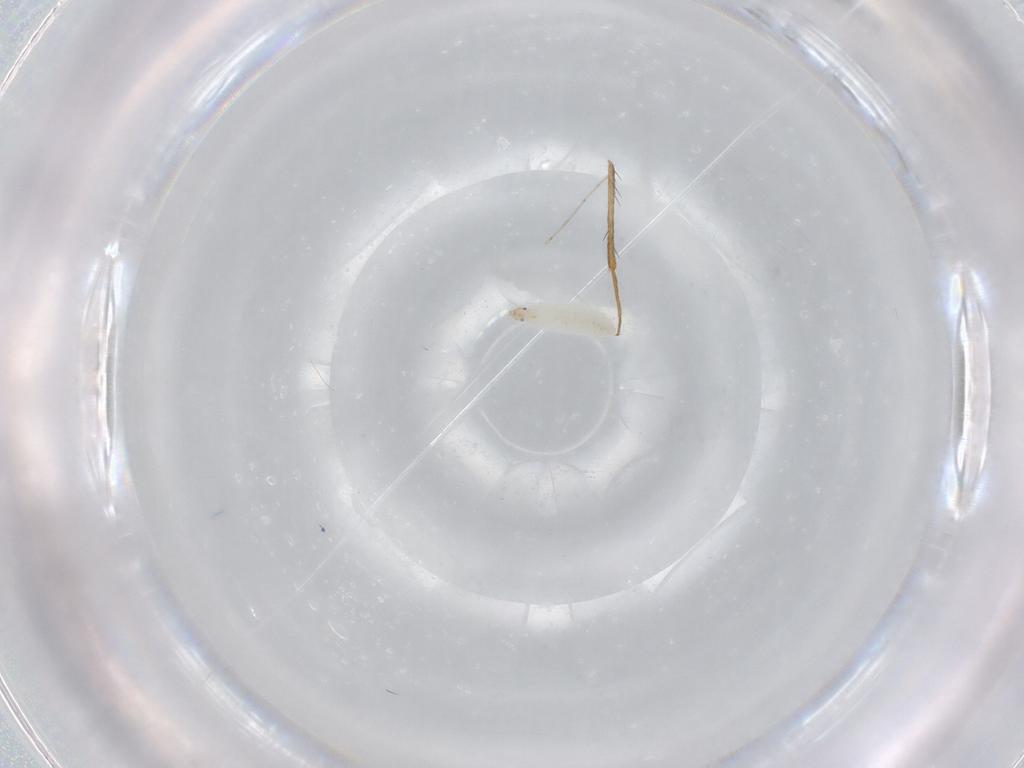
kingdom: Animalia
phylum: Arthropoda
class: Insecta
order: Diptera
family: Cecidomyiidae
